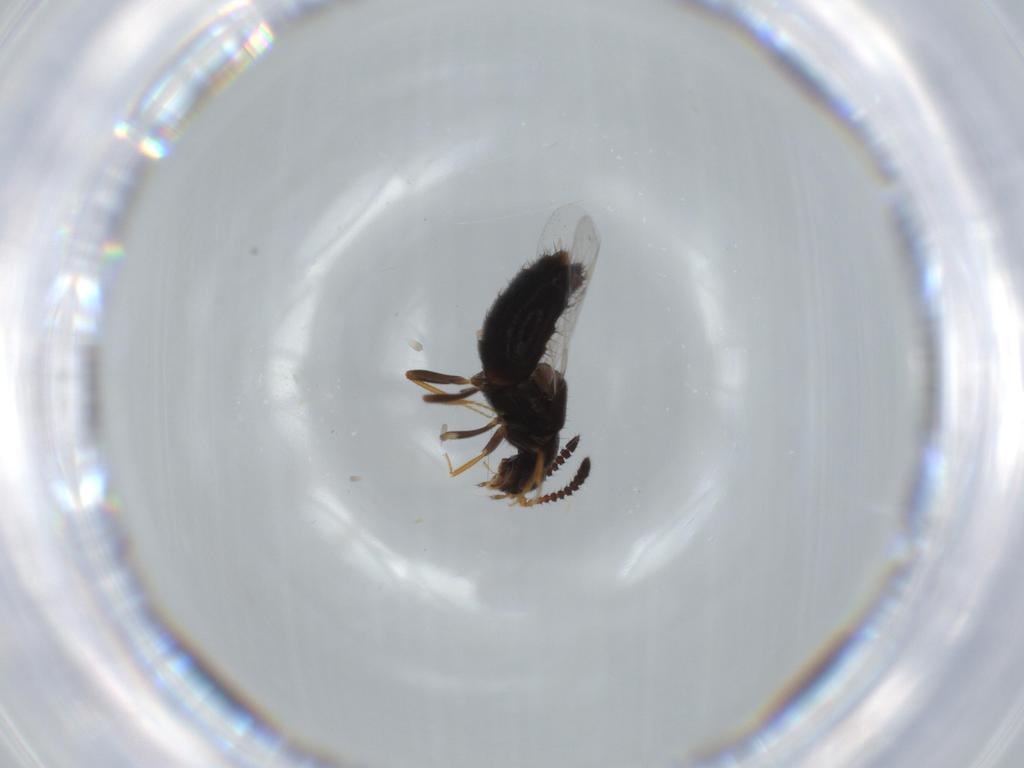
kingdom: Animalia
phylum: Arthropoda
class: Insecta
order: Coleoptera
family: Staphylinidae
